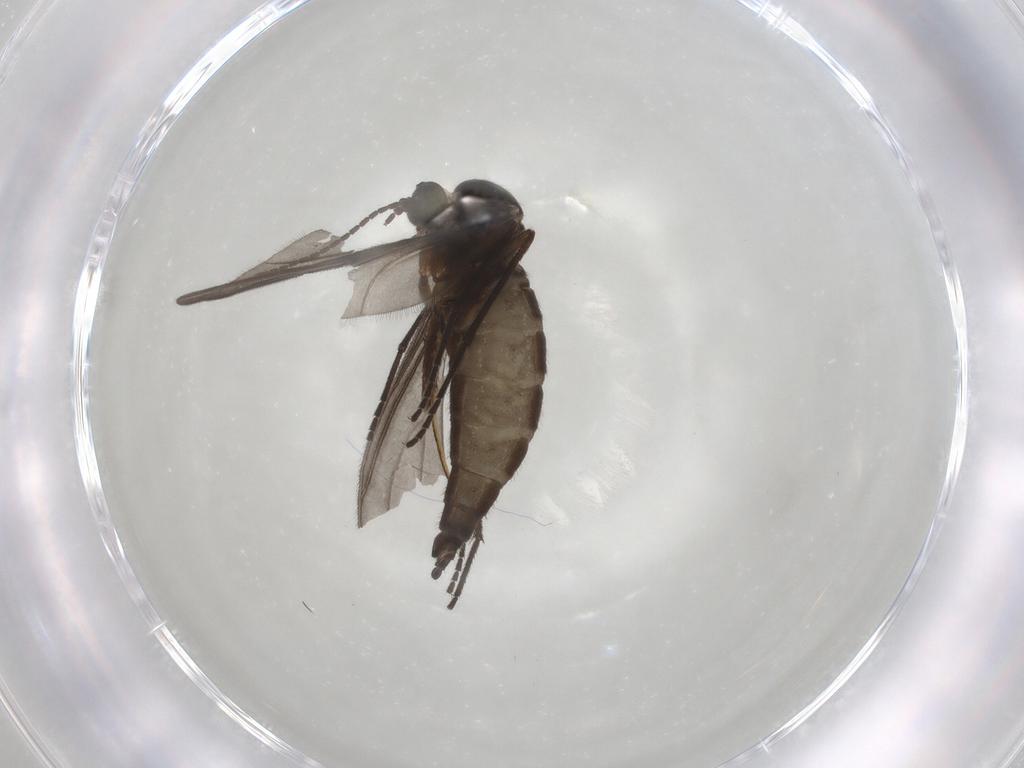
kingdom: Animalia
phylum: Arthropoda
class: Insecta
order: Diptera
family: Sciaridae
